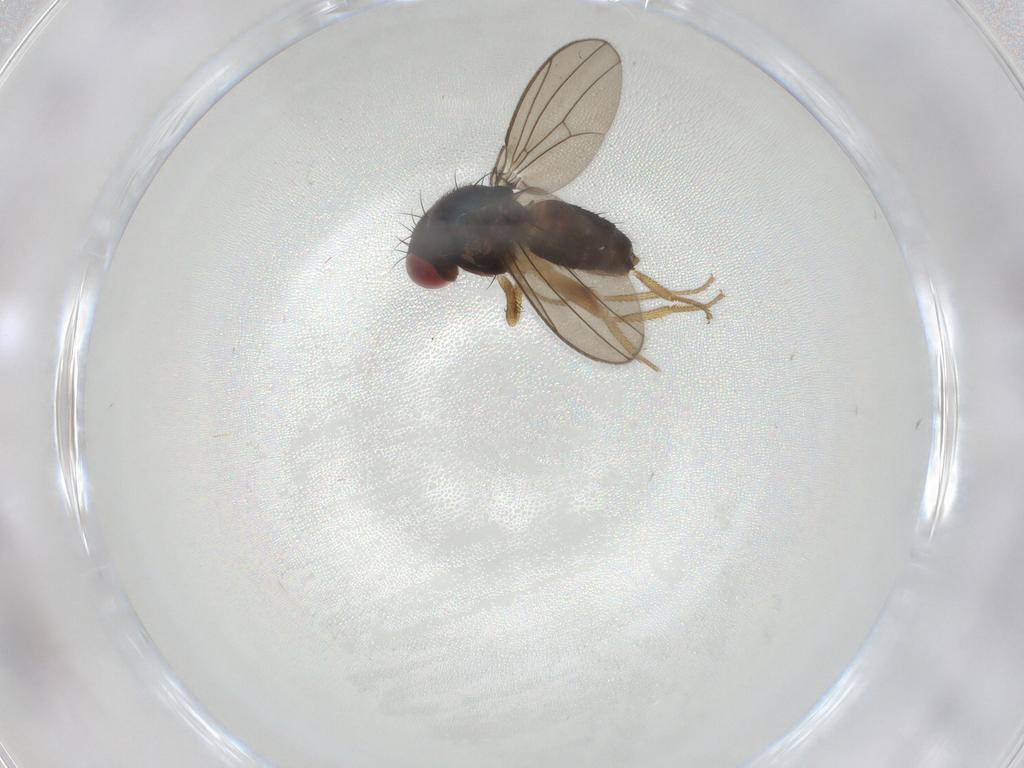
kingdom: Animalia
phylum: Arthropoda
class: Insecta
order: Diptera
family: Drosophilidae
